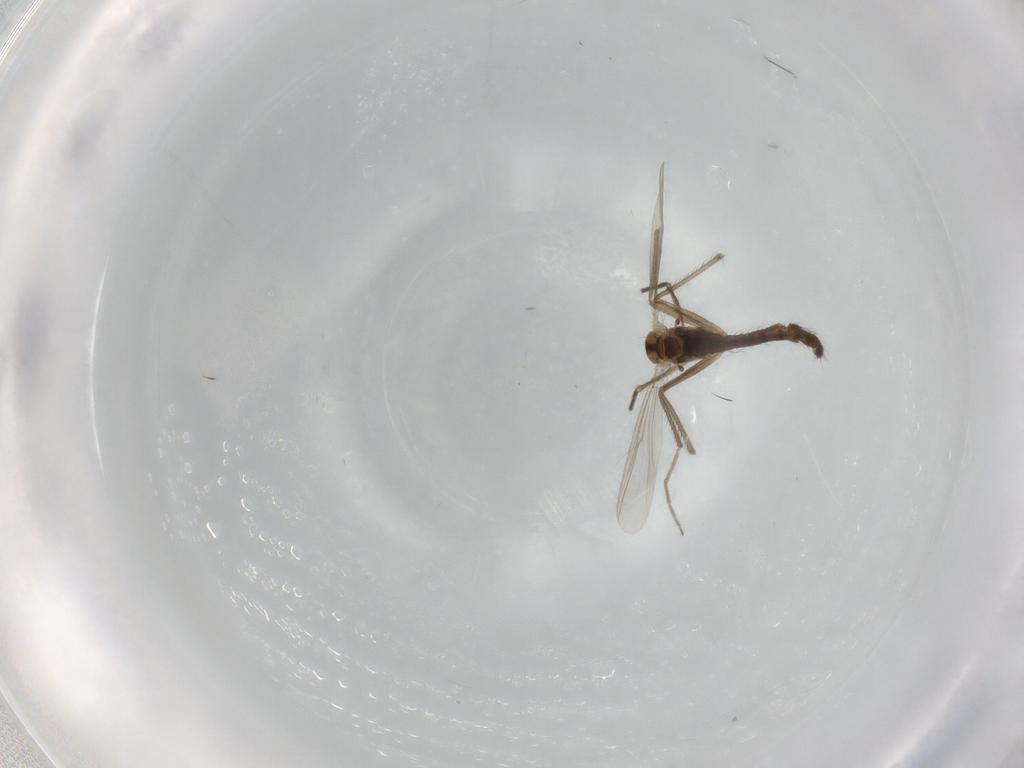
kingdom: Animalia
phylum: Arthropoda
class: Insecta
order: Diptera
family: Chironomidae
